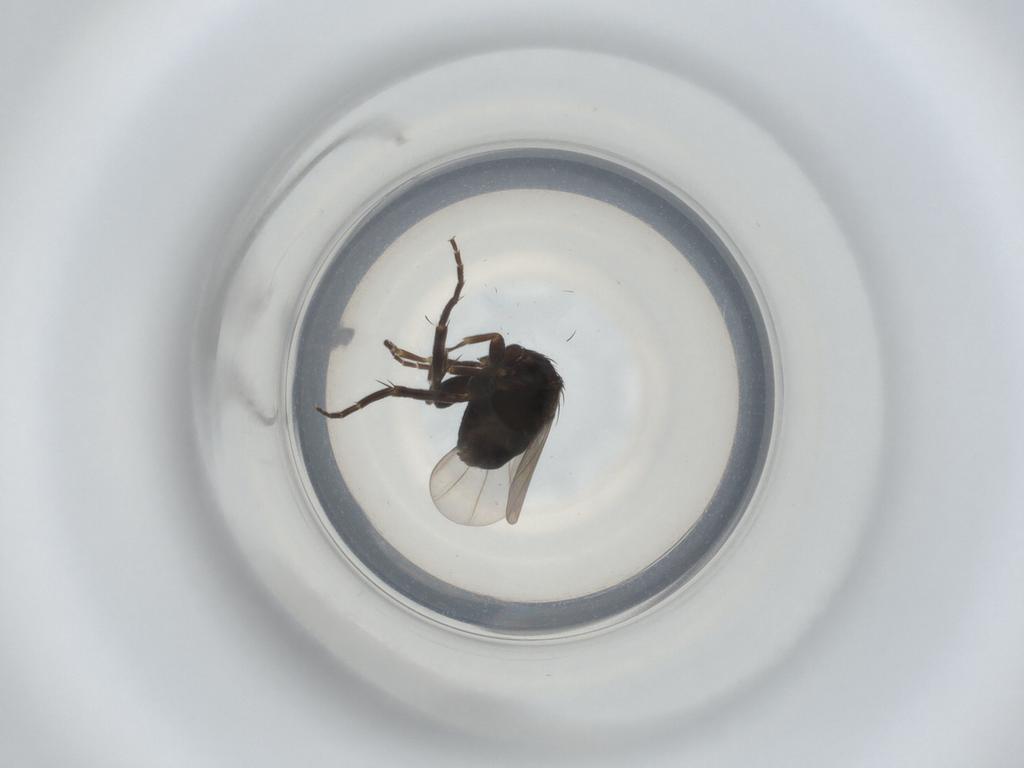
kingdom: Animalia
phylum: Arthropoda
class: Insecta
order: Diptera
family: Phoridae
